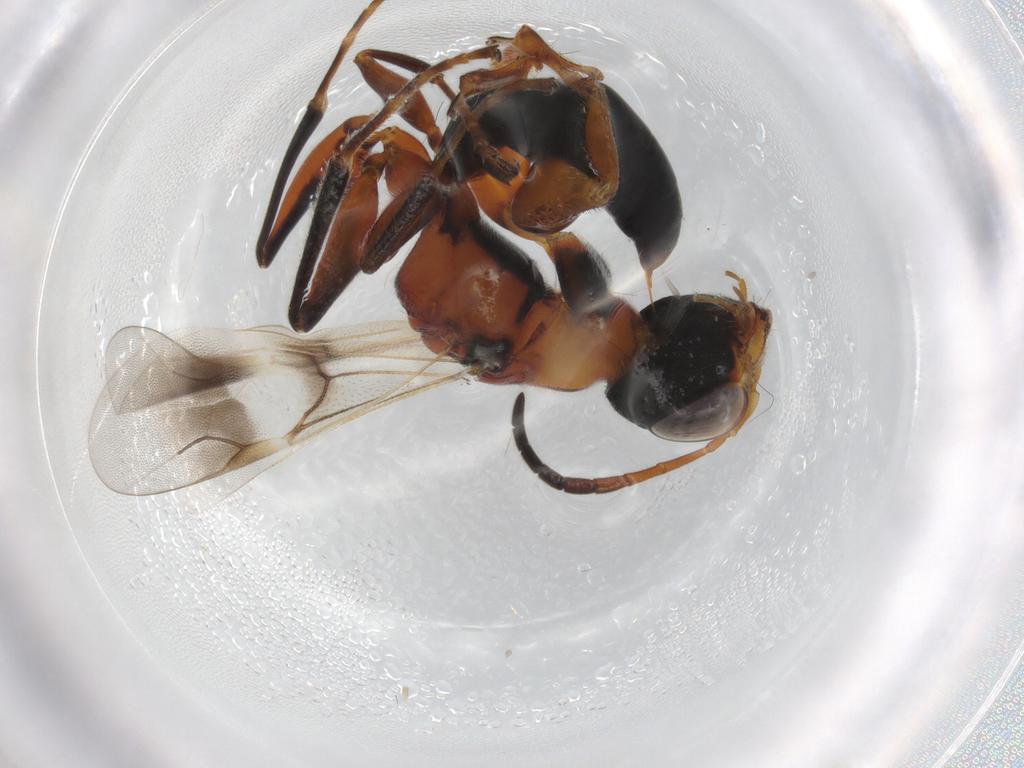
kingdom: Animalia
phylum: Arthropoda
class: Insecta
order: Hymenoptera
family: Dryinidae
